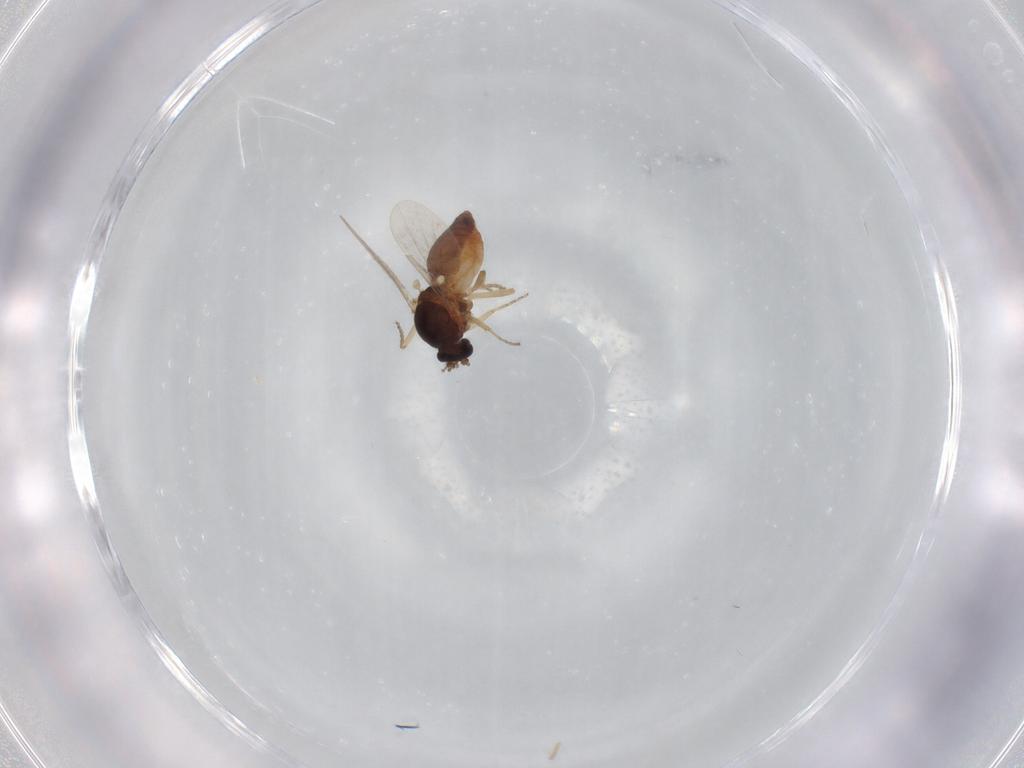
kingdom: Animalia
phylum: Arthropoda
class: Insecta
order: Diptera
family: Ceratopogonidae
